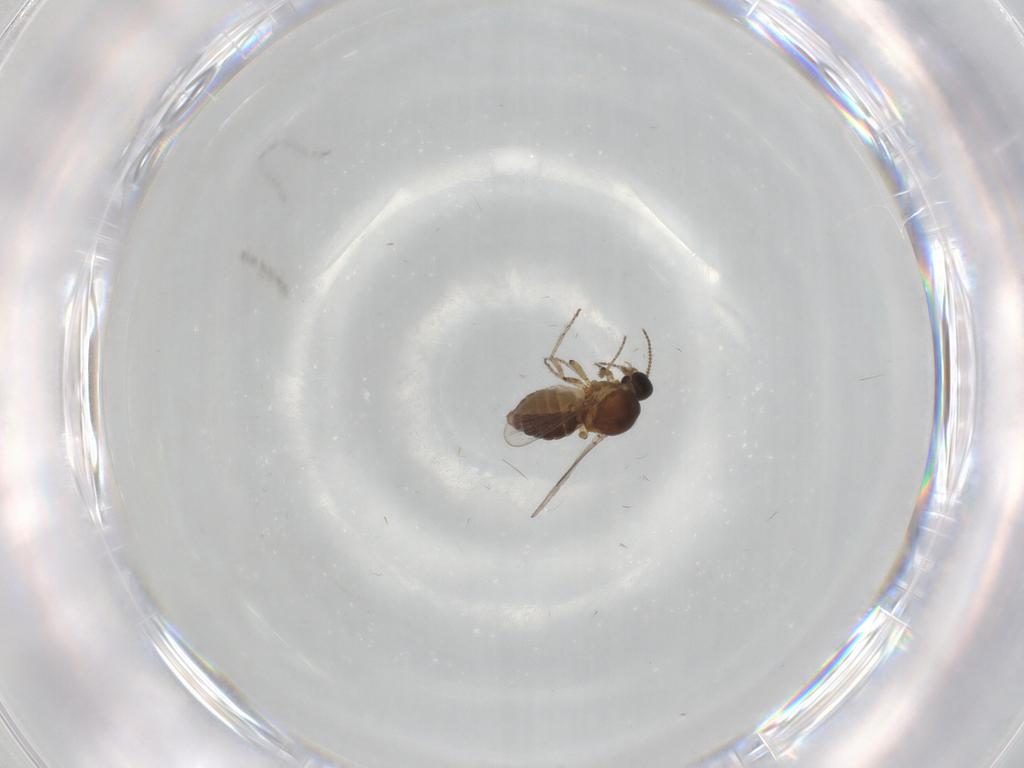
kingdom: Animalia
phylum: Arthropoda
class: Insecta
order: Diptera
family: Ceratopogonidae
